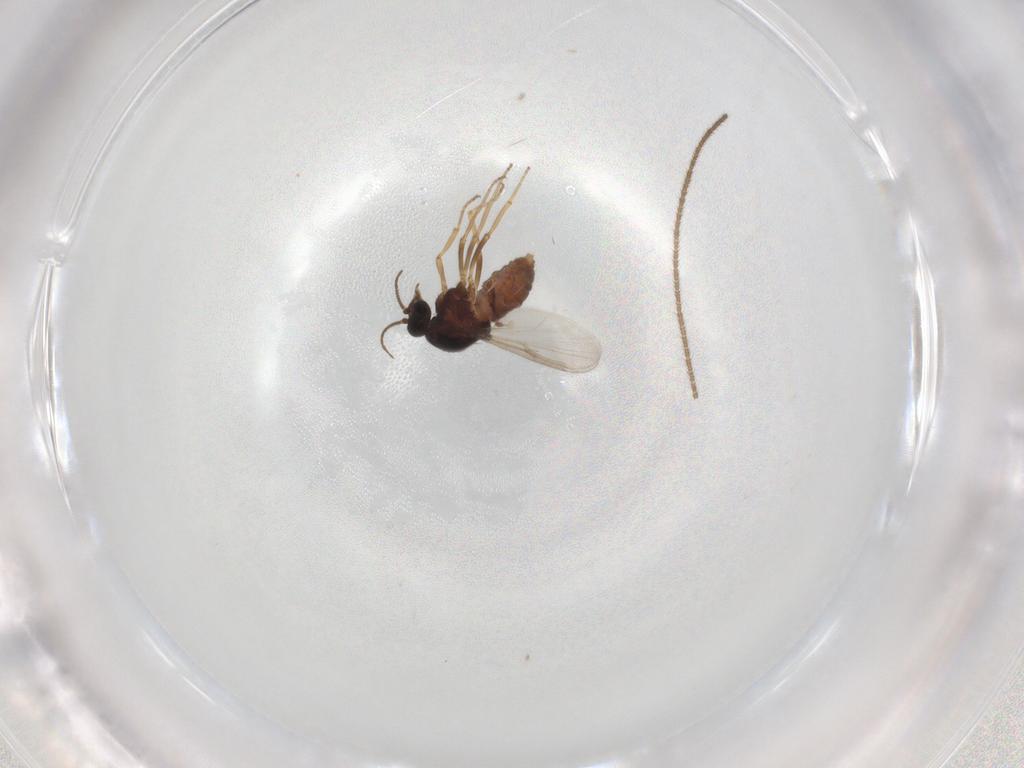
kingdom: Animalia
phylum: Arthropoda
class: Insecta
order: Diptera
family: Ceratopogonidae
